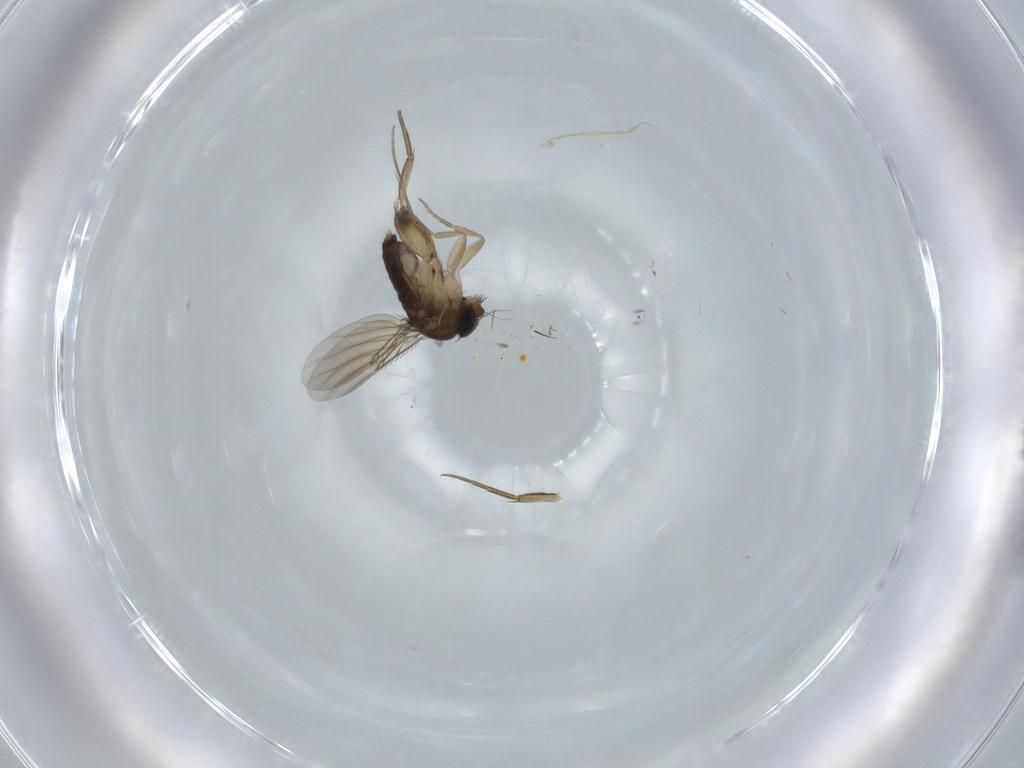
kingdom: Animalia
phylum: Arthropoda
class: Insecta
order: Diptera
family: Phoridae
